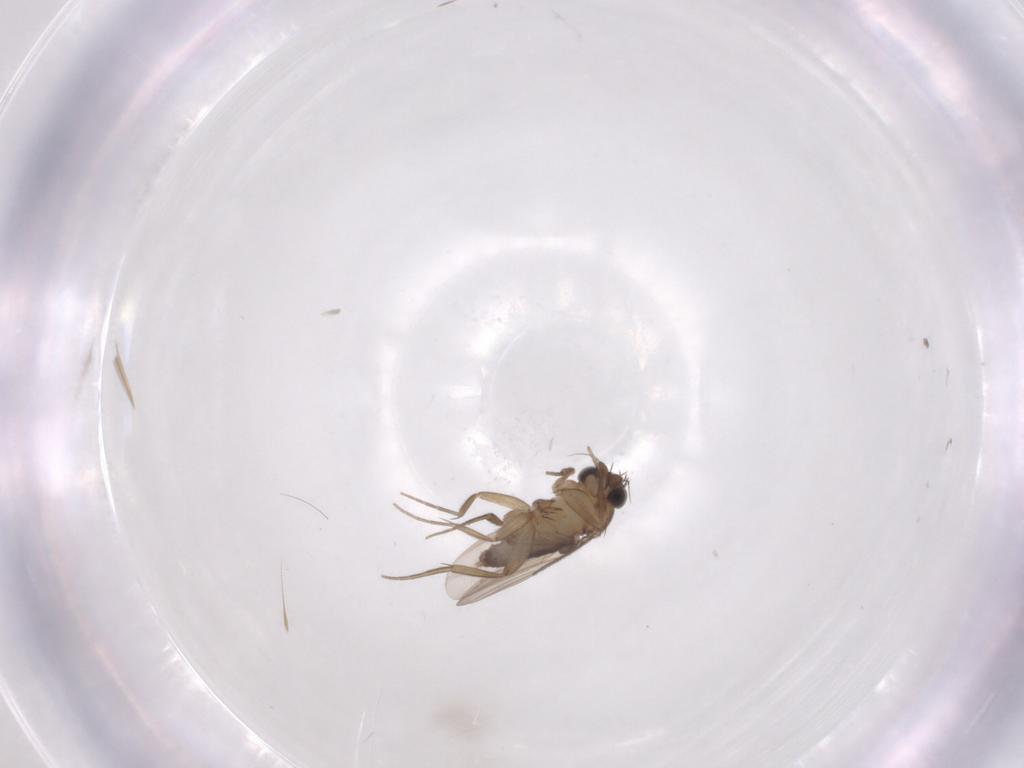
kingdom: Animalia
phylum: Arthropoda
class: Insecta
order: Diptera
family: Phoridae
